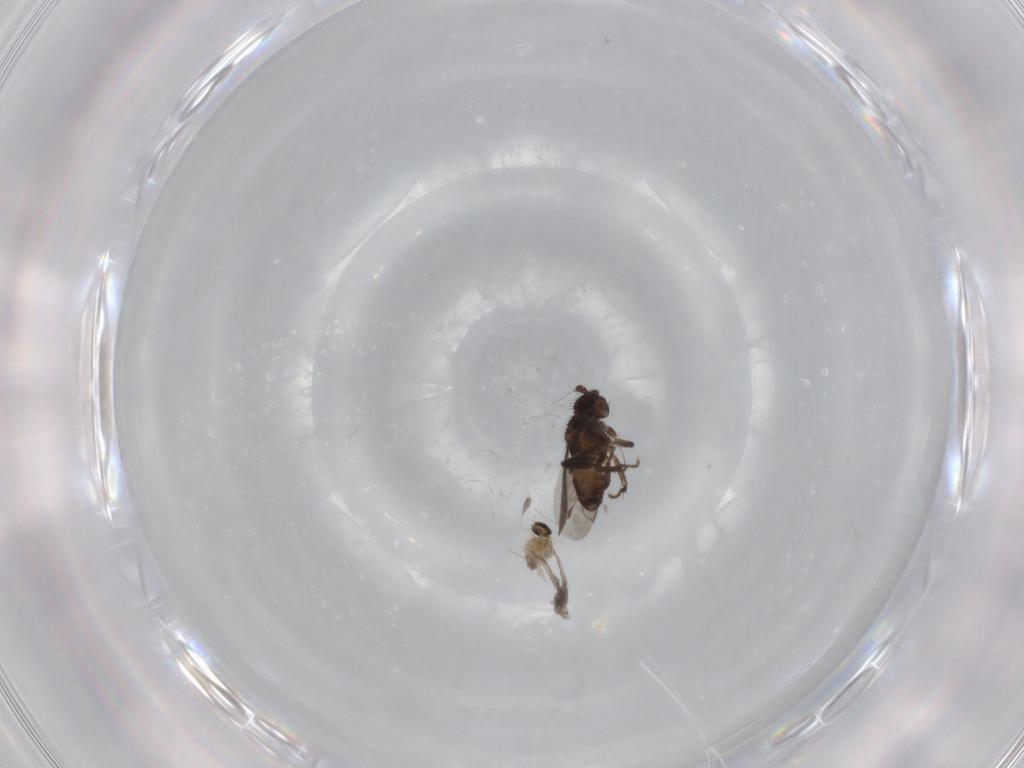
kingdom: Animalia
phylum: Arthropoda
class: Insecta
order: Diptera
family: Sphaeroceridae
